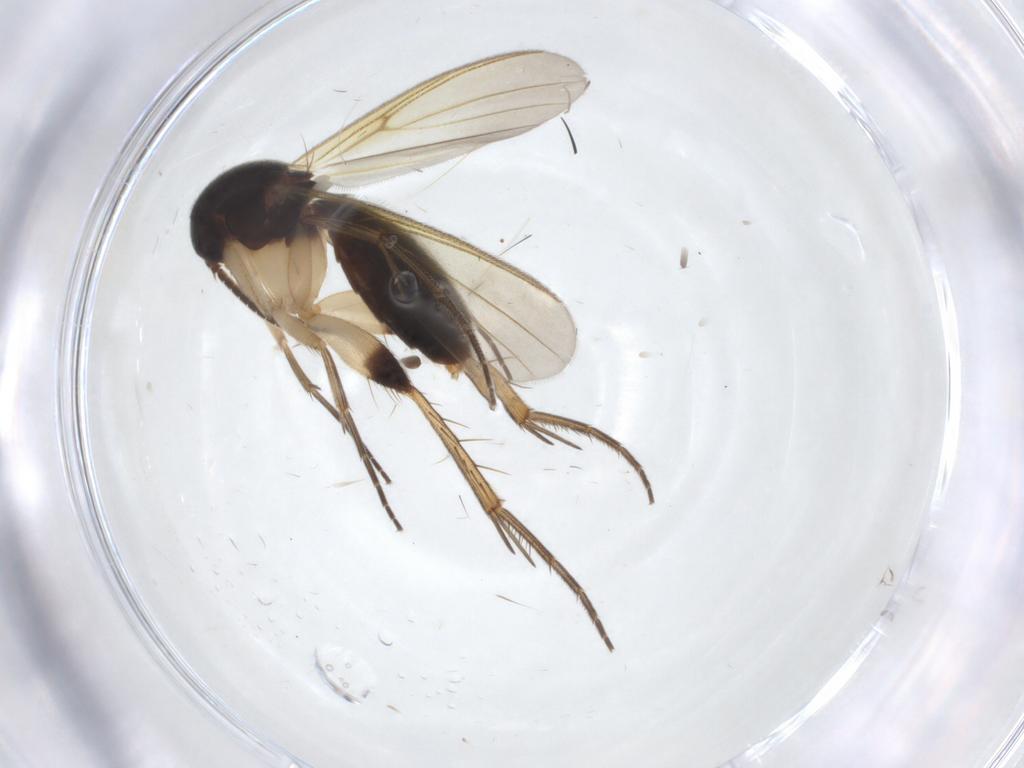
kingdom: Animalia
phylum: Arthropoda
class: Insecta
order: Diptera
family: Mycetophilidae
